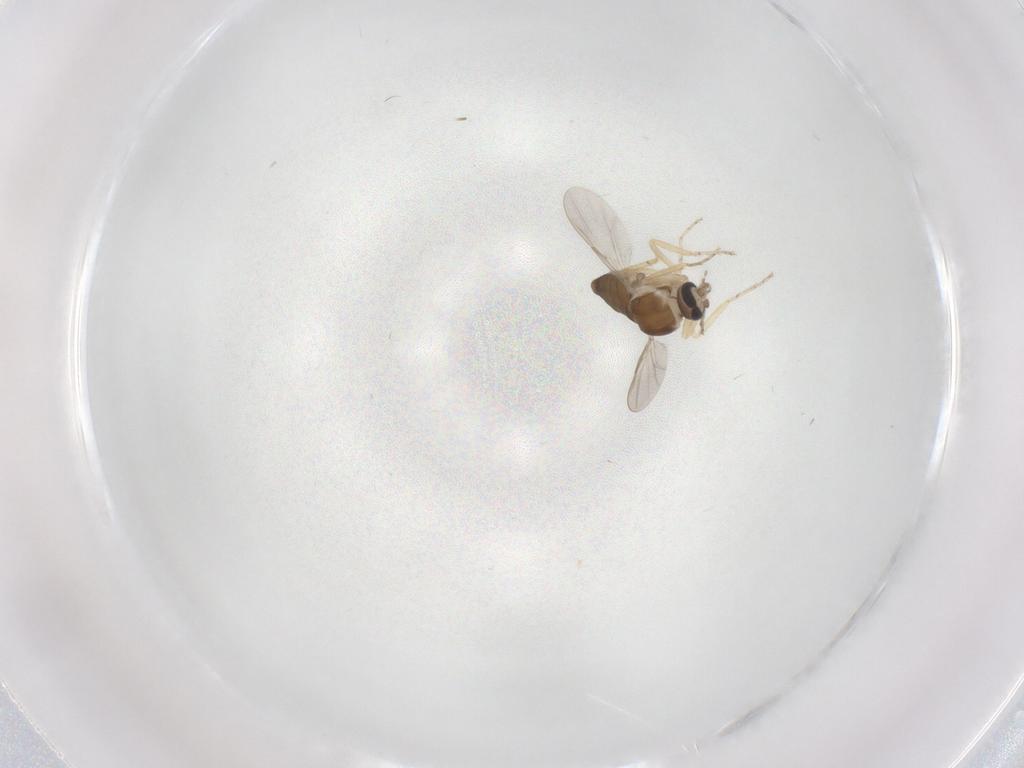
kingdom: Animalia
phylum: Arthropoda
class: Insecta
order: Diptera
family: Ceratopogonidae
